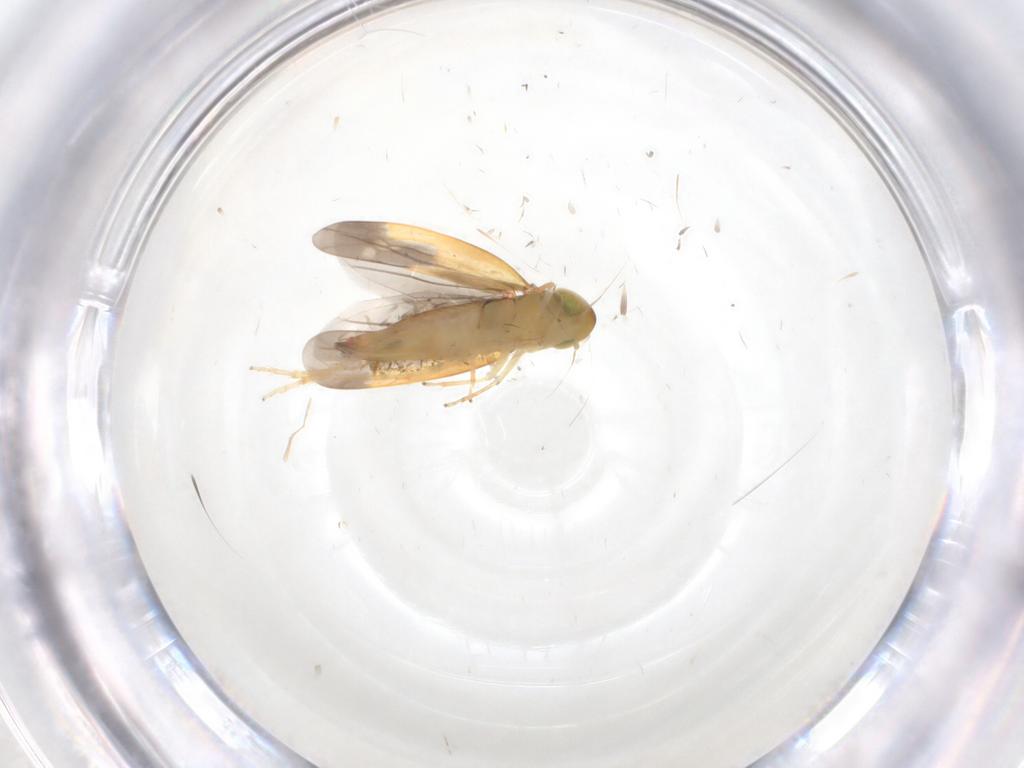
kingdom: Animalia
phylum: Arthropoda
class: Insecta
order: Hemiptera
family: Cicadellidae
